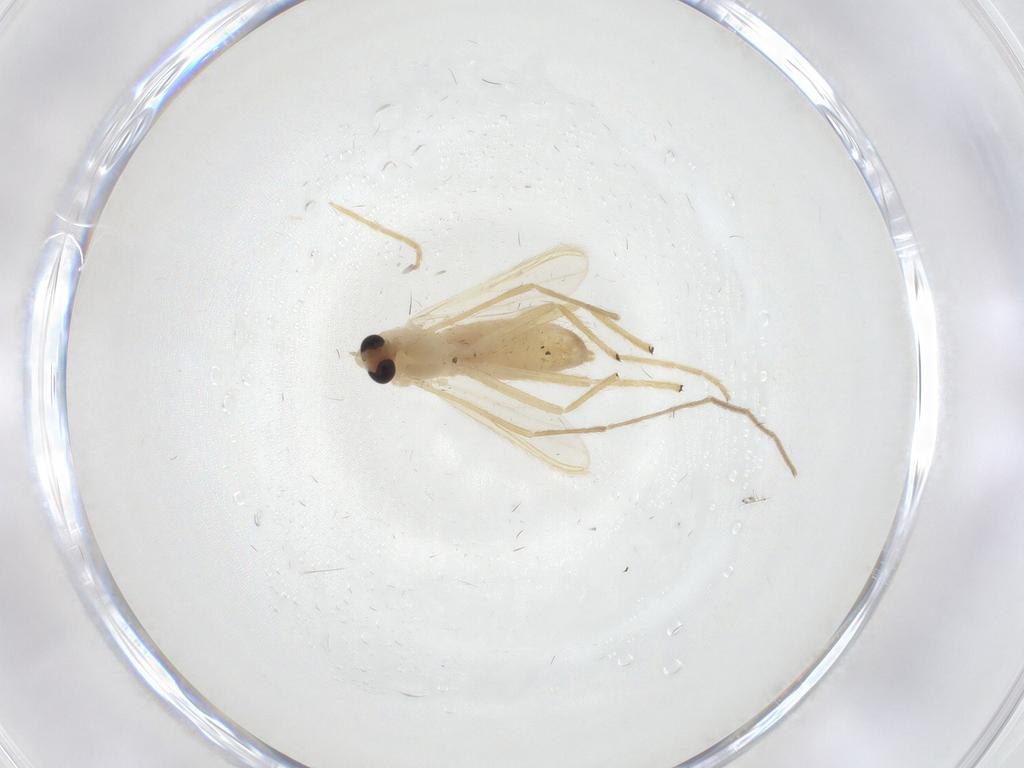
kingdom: Animalia
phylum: Arthropoda
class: Insecta
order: Diptera
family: Chironomidae
